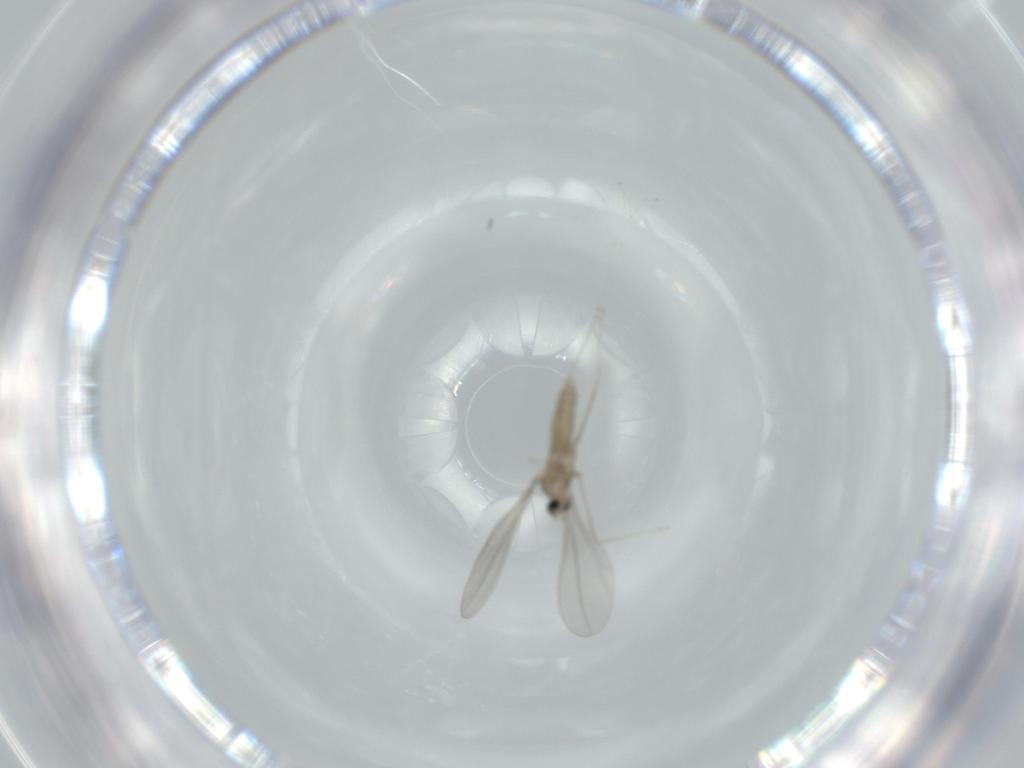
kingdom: Animalia
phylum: Arthropoda
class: Insecta
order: Diptera
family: Cecidomyiidae
